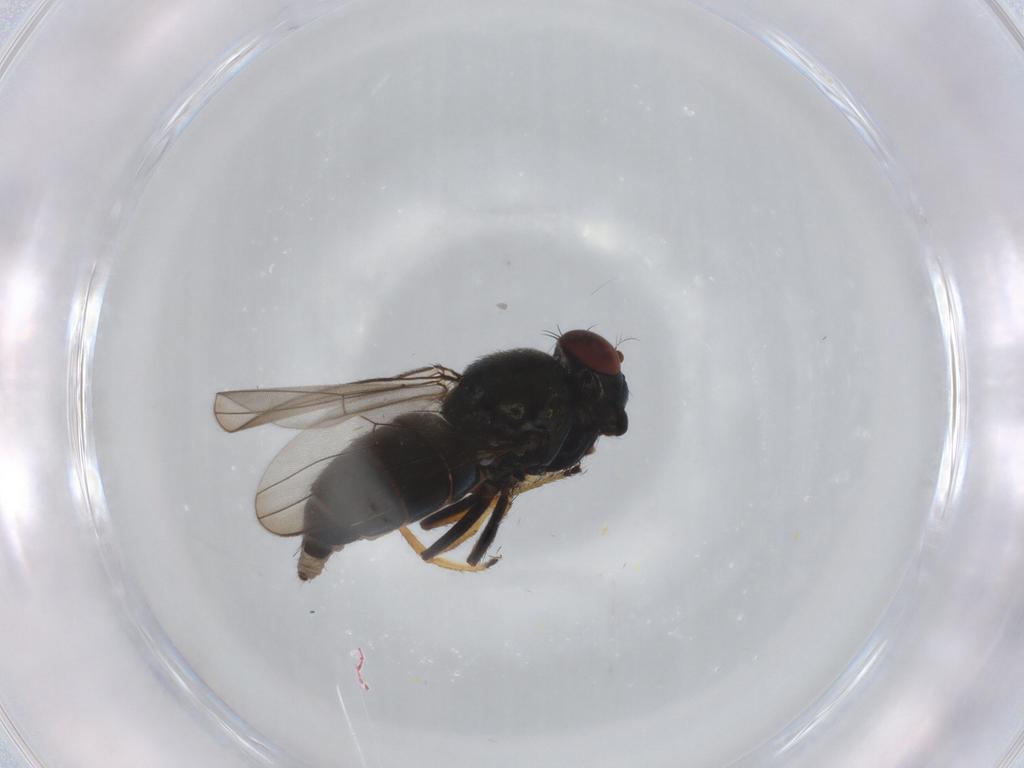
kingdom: Animalia
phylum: Arthropoda
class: Insecta
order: Diptera
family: Ephydridae
